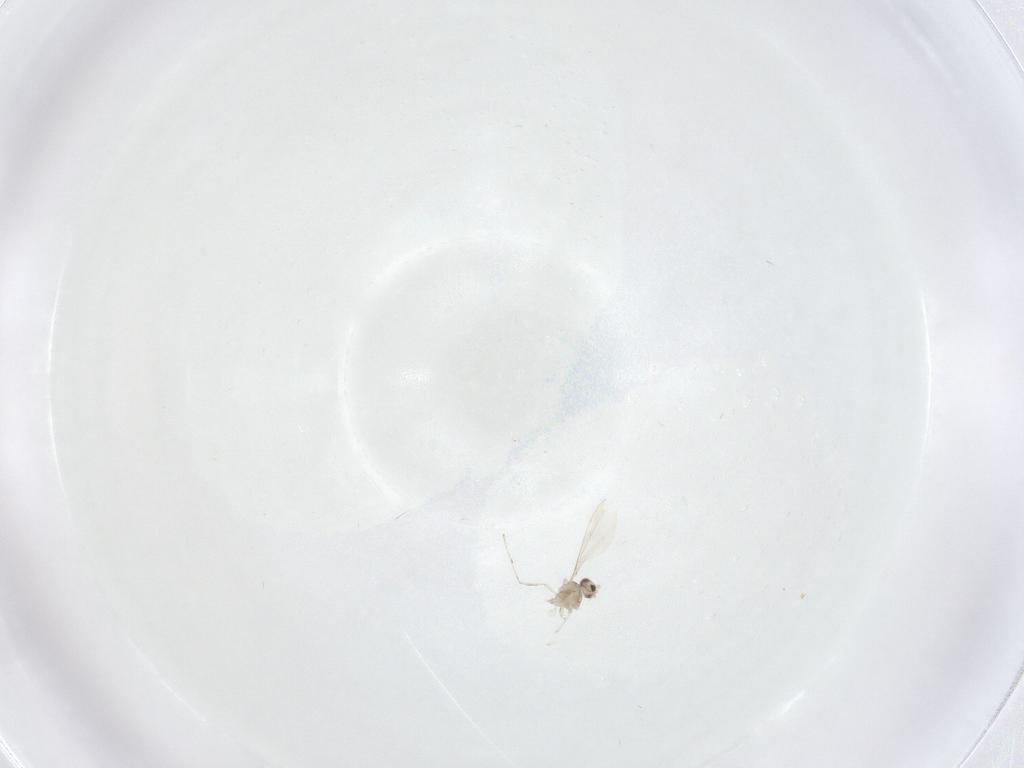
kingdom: Animalia
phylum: Arthropoda
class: Insecta
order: Diptera
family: Cecidomyiidae
